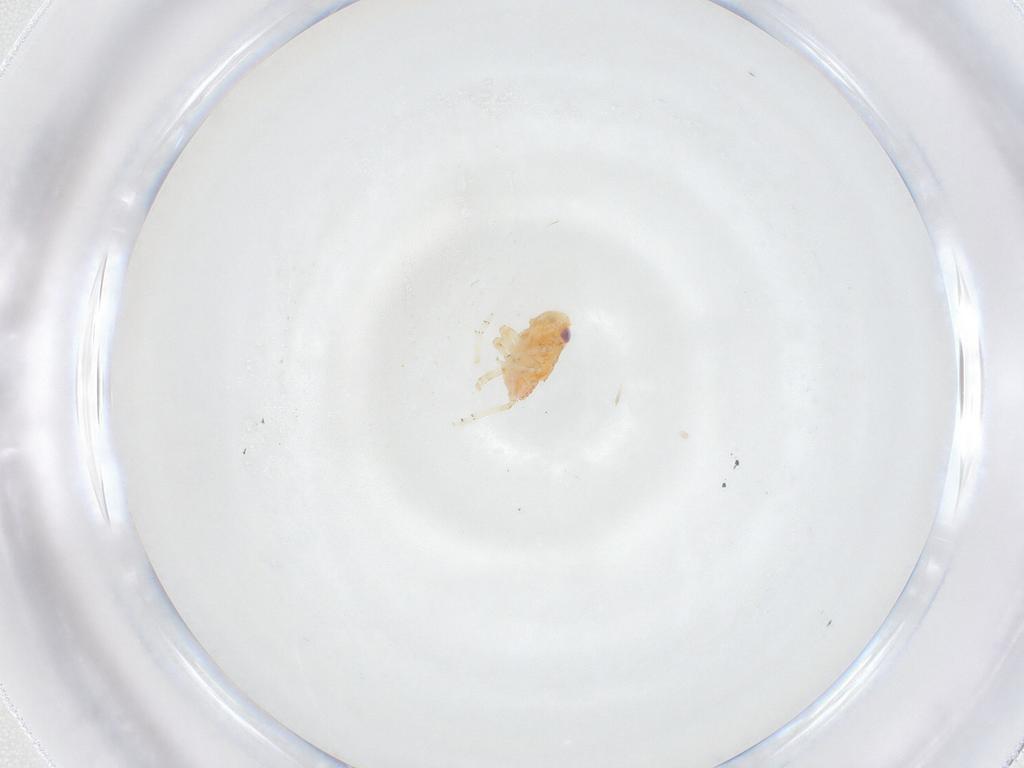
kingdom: Animalia
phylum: Arthropoda
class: Insecta
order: Hemiptera
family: Issidae
